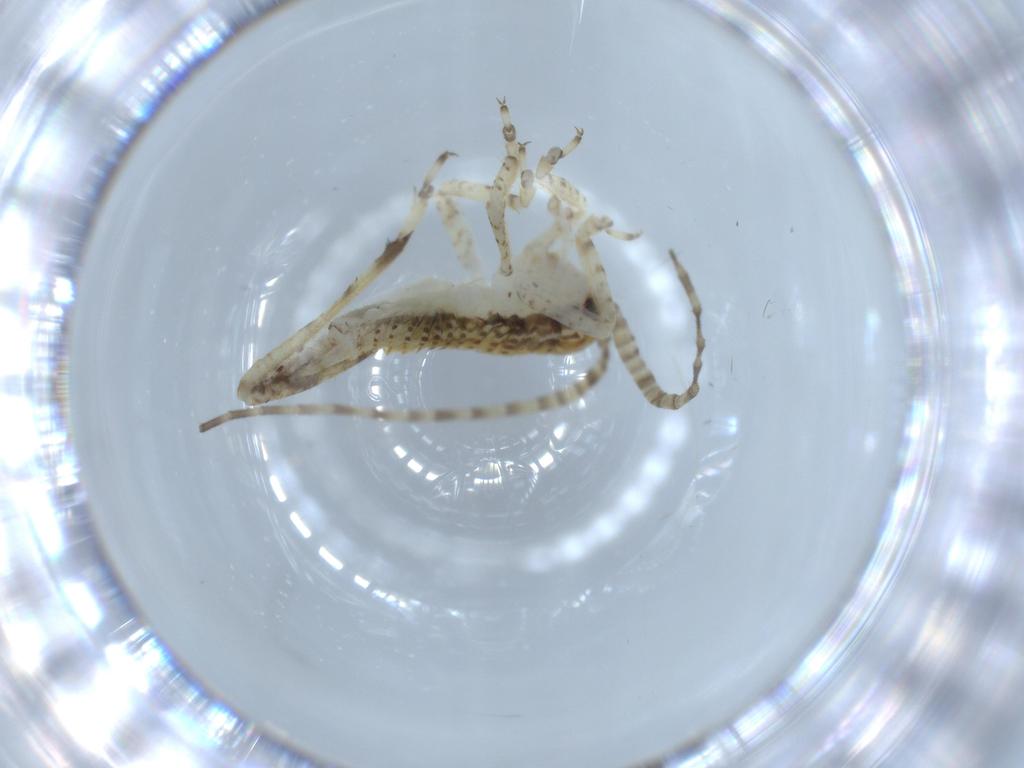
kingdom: Animalia
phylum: Arthropoda
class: Insecta
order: Orthoptera
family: Gryllidae
